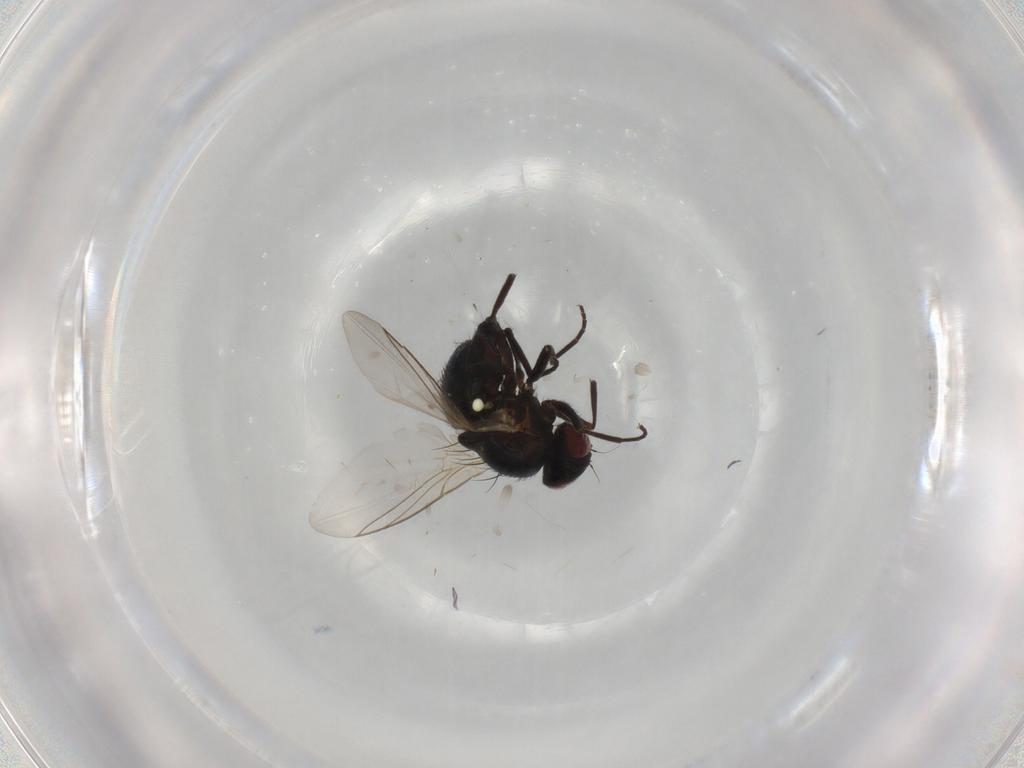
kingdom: Animalia
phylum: Arthropoda
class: Insecta
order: Diptera
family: Agromyzidae
